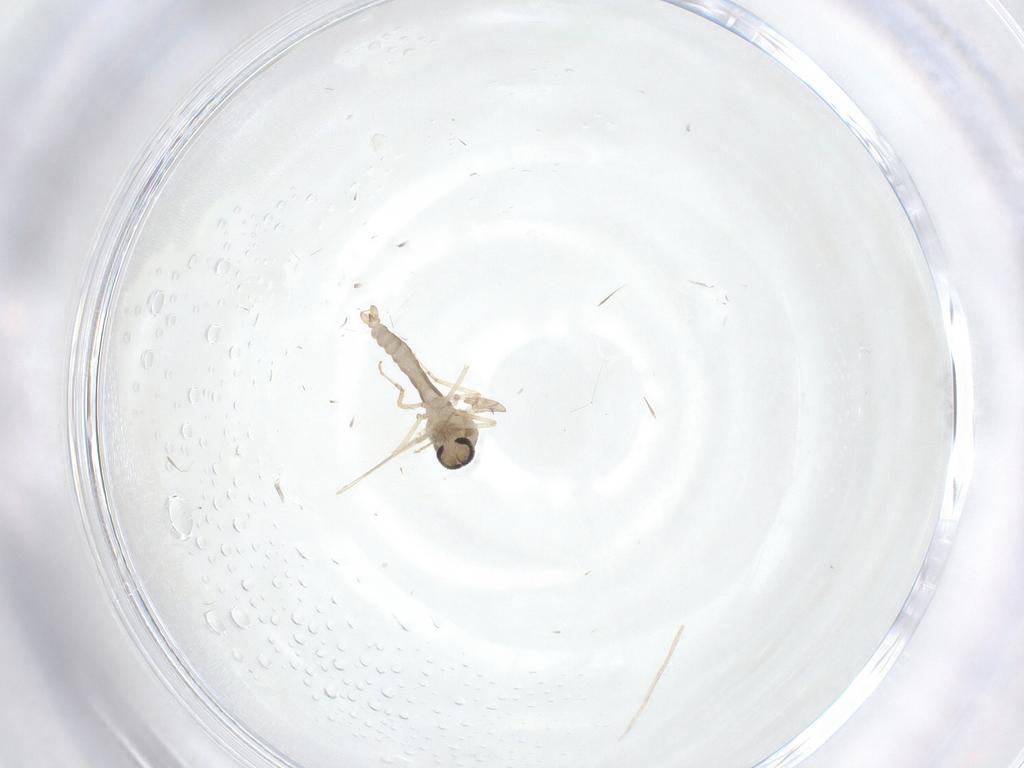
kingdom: Animalia
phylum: Arthropoda
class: Insecta
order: Diptera
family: Ceratopogonidae
